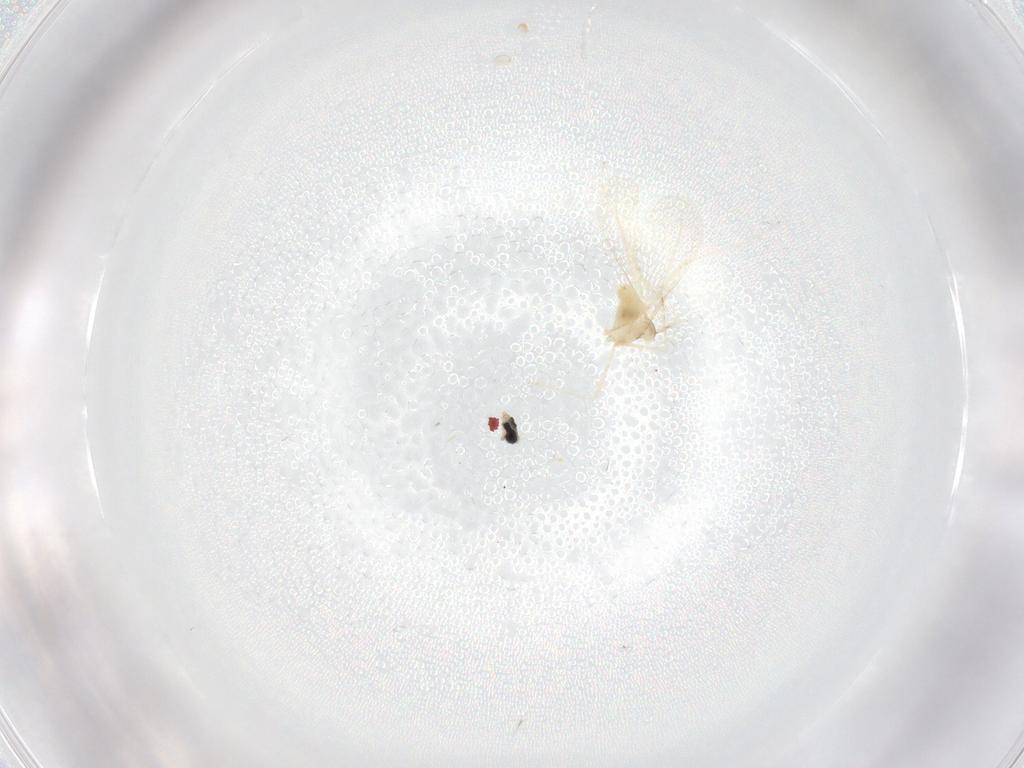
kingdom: Animalia
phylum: Arthropoda
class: Insecta
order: Diptera
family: Cecidomyiidae
